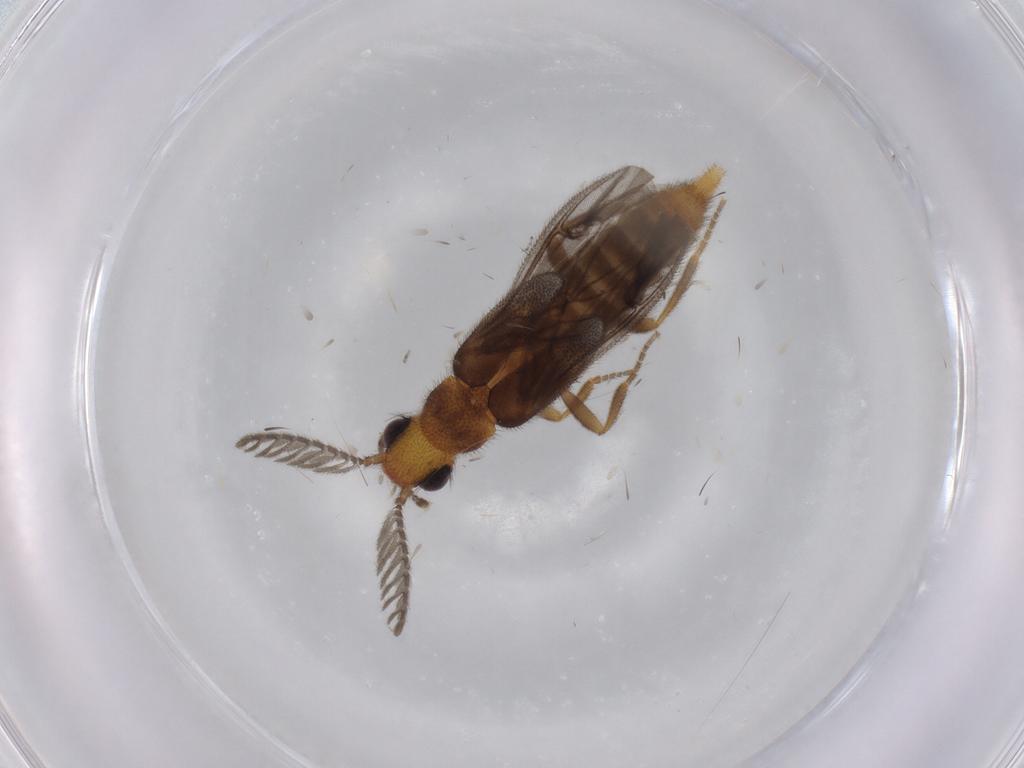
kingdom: Animalia
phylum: Arthropoda
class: Insecta
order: Coleoptera
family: Phengodidae
